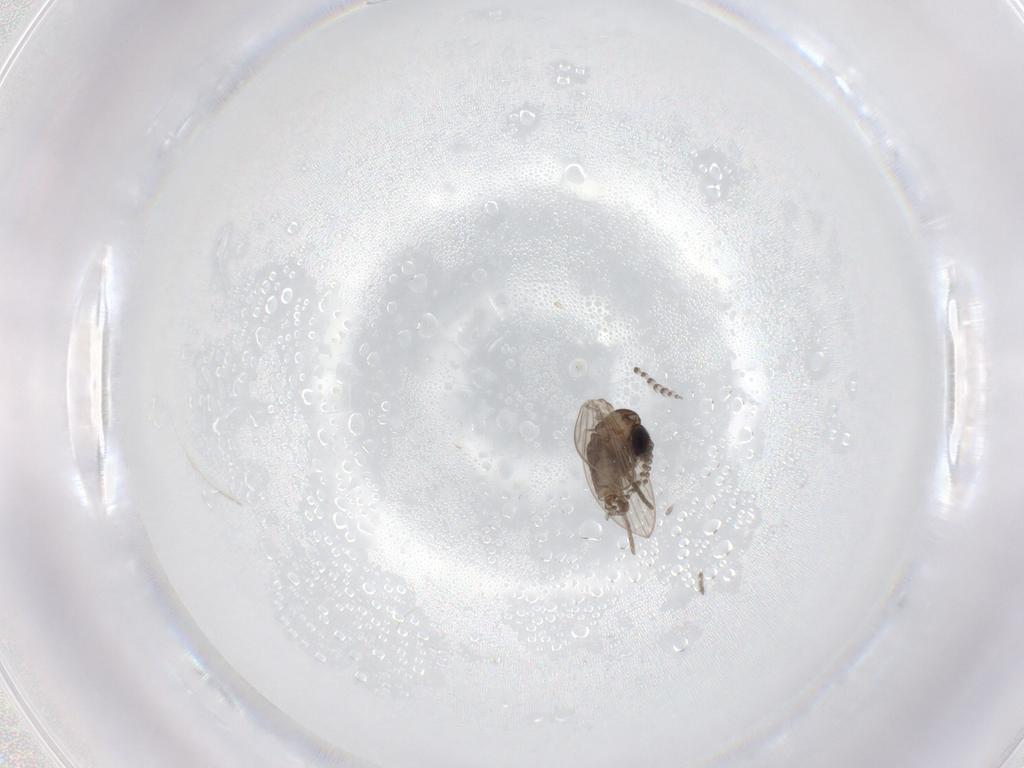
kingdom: Animalia
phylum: Arthropoda
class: Insecta
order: Diptera
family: Psychodidae
